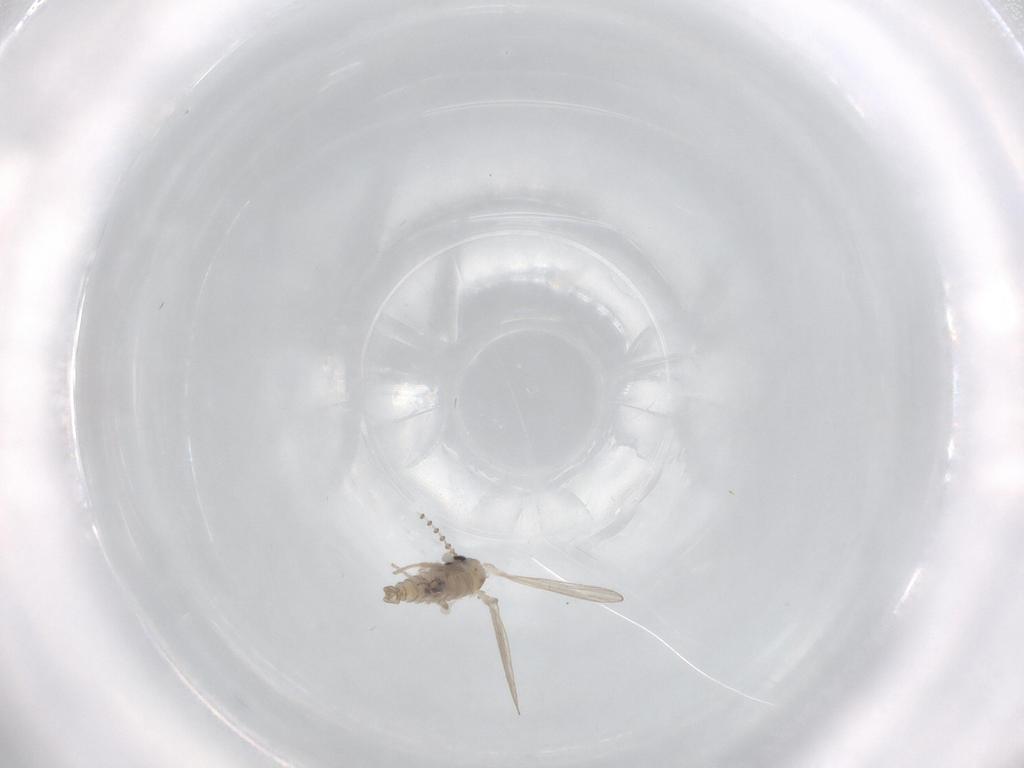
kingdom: Animalia
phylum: Arthropoda
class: Insecta
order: Diptera
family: Psychodidae
